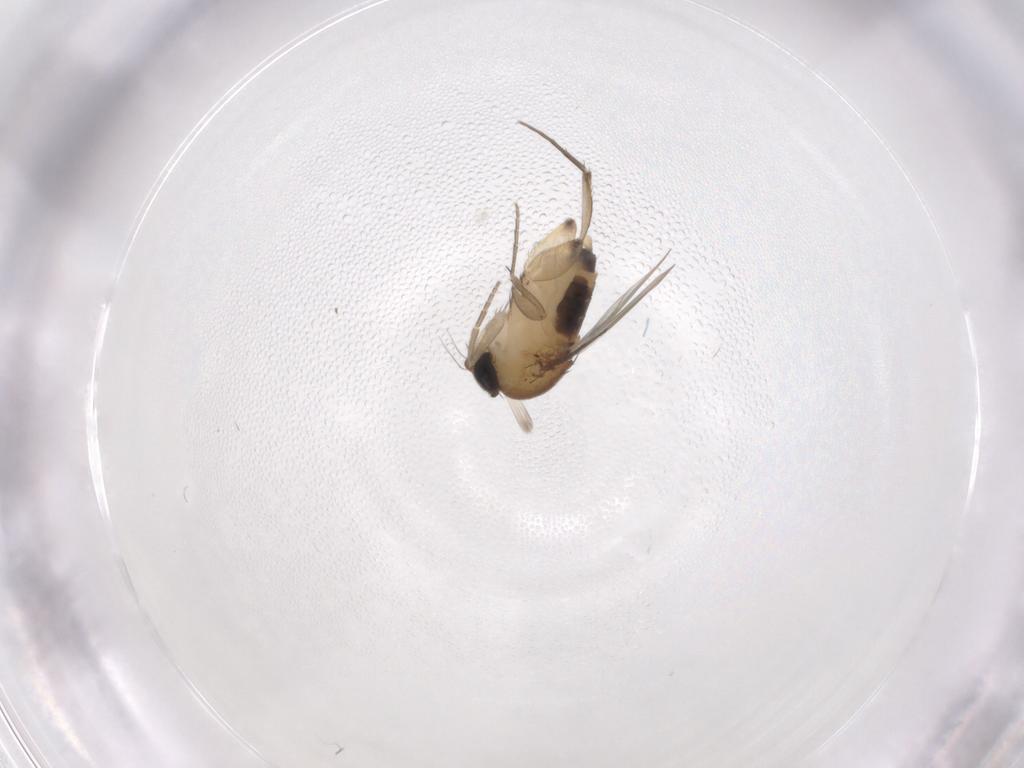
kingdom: Animalia
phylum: Arthropoda
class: Insecta
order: Diptera
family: Phoridae
